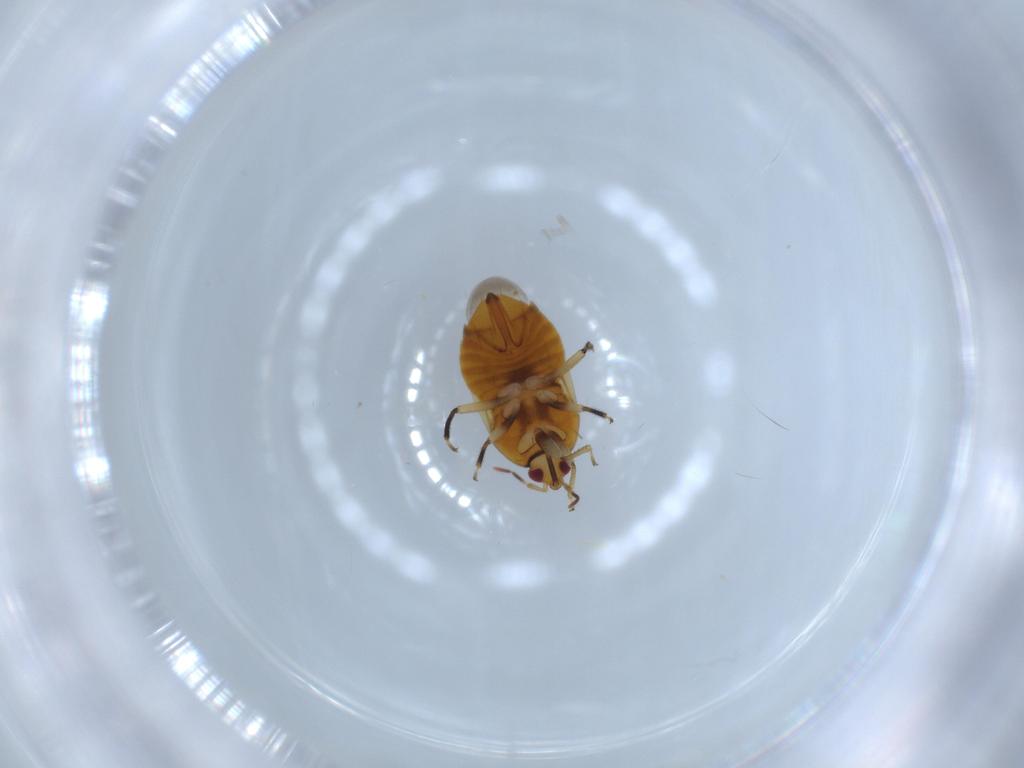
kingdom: Animalia
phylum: Arthropoda
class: Insecta
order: Hemiptera
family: Anthocoridae
